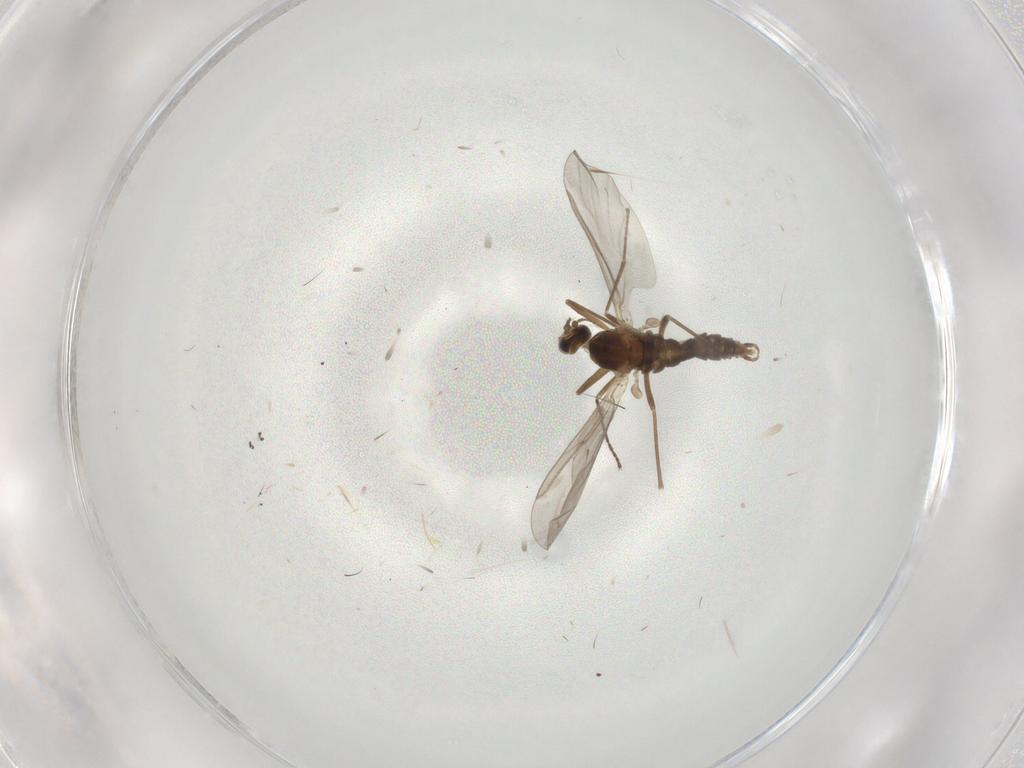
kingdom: Animalia
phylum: Arthropoda
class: Insecta
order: Diptera
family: Cecidomyiidae
